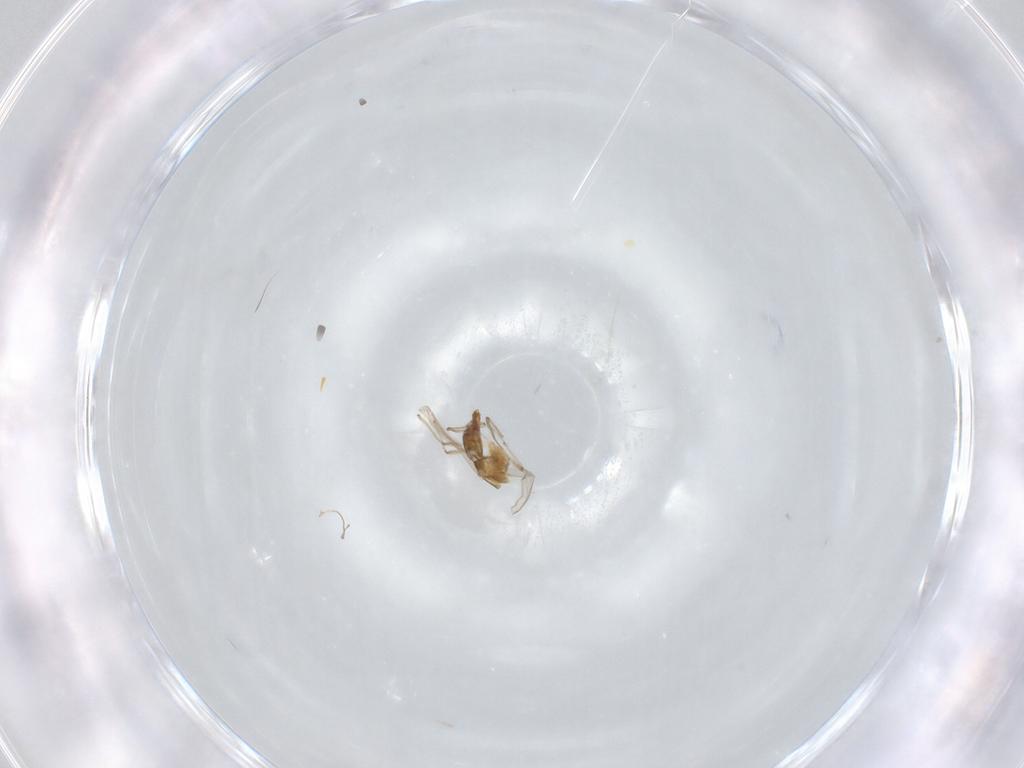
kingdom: Animalia
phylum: Arthropoda
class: Insecta
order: Diptera
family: Chironomidae
